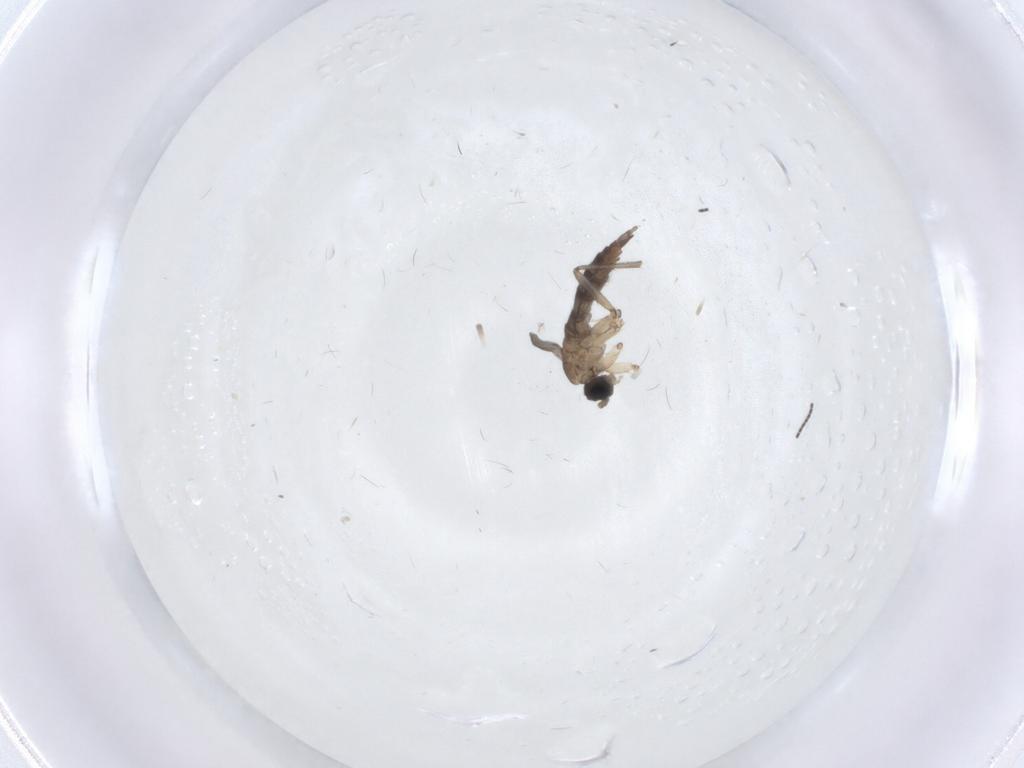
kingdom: Animalia
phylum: Arthropoda
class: Insecta
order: Diptera
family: Sciaridae
